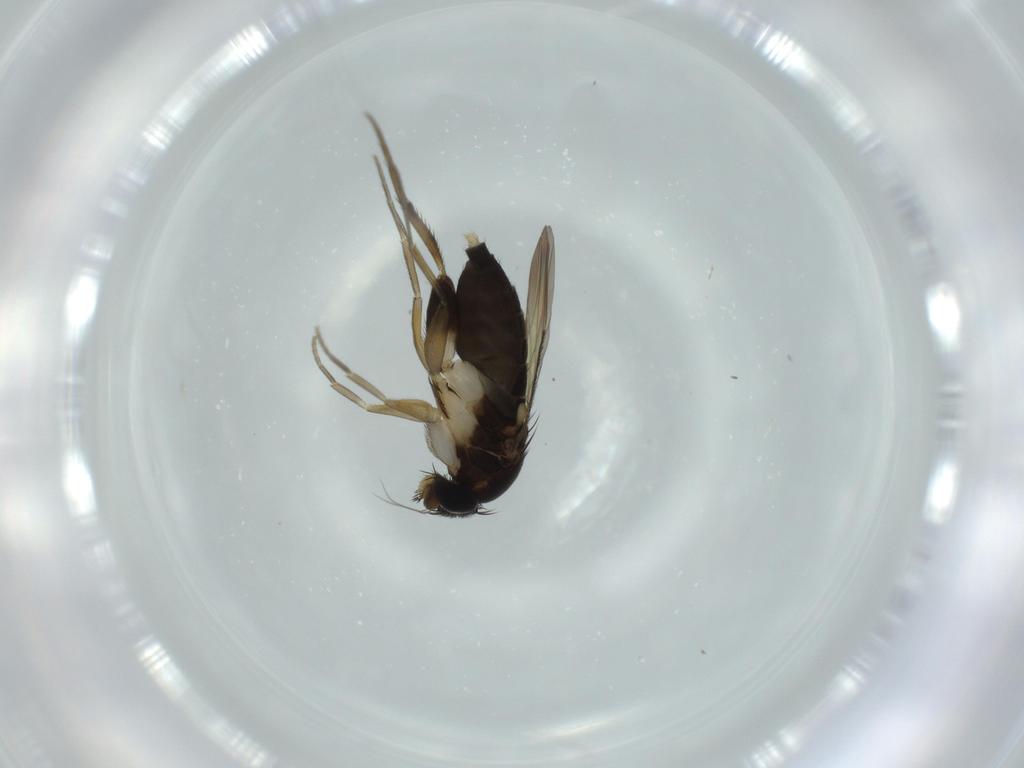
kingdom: Animalia
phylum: Arthropoda
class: Insecta
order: Diptera
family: Phoridae
